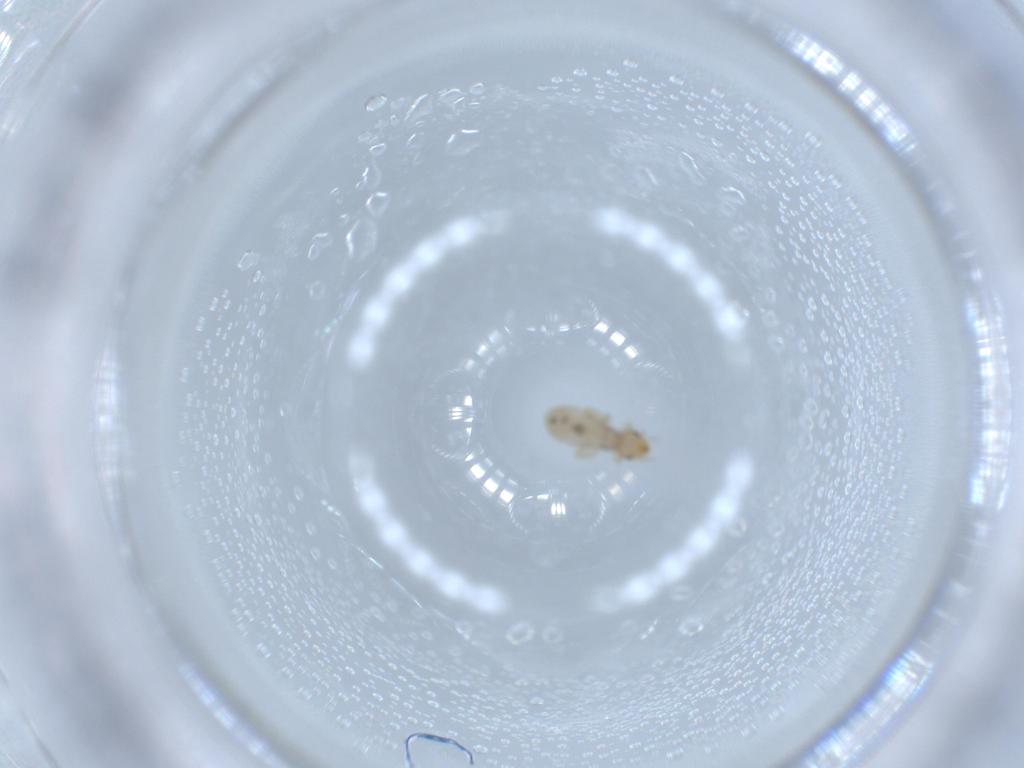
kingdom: Animalia
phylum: Arthropoda
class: Insecta
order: Psocodea
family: Liposcelididae
